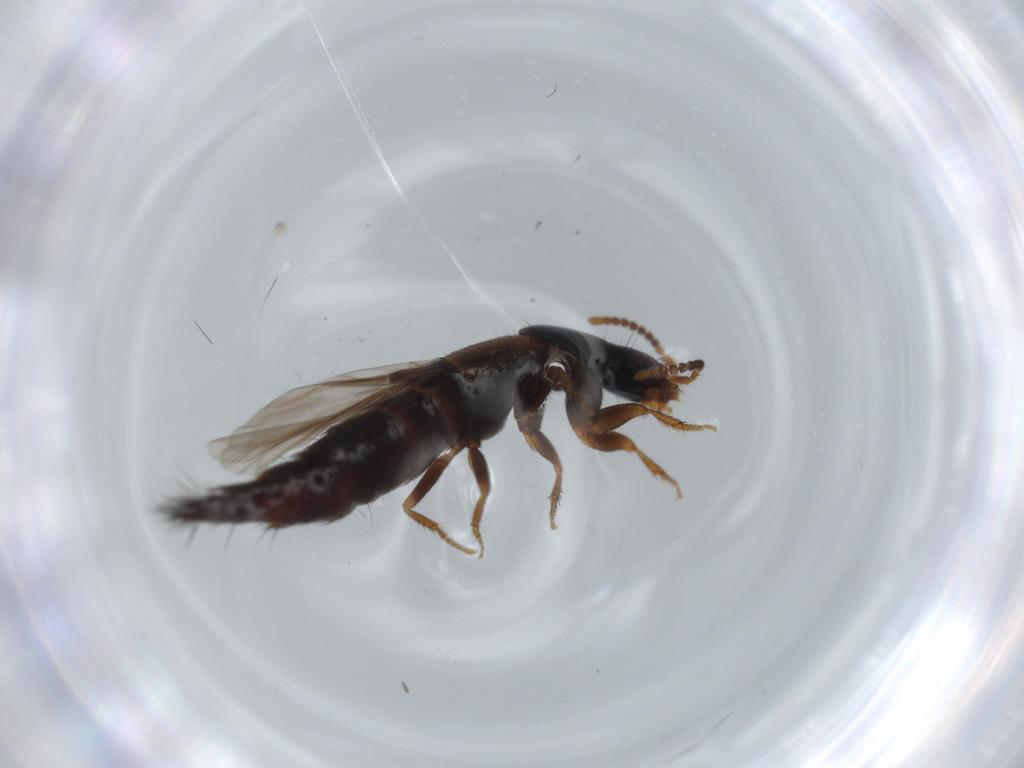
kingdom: Animalia
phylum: Arthropoda
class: Insecta
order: Coleoptera
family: Staphylinidae
